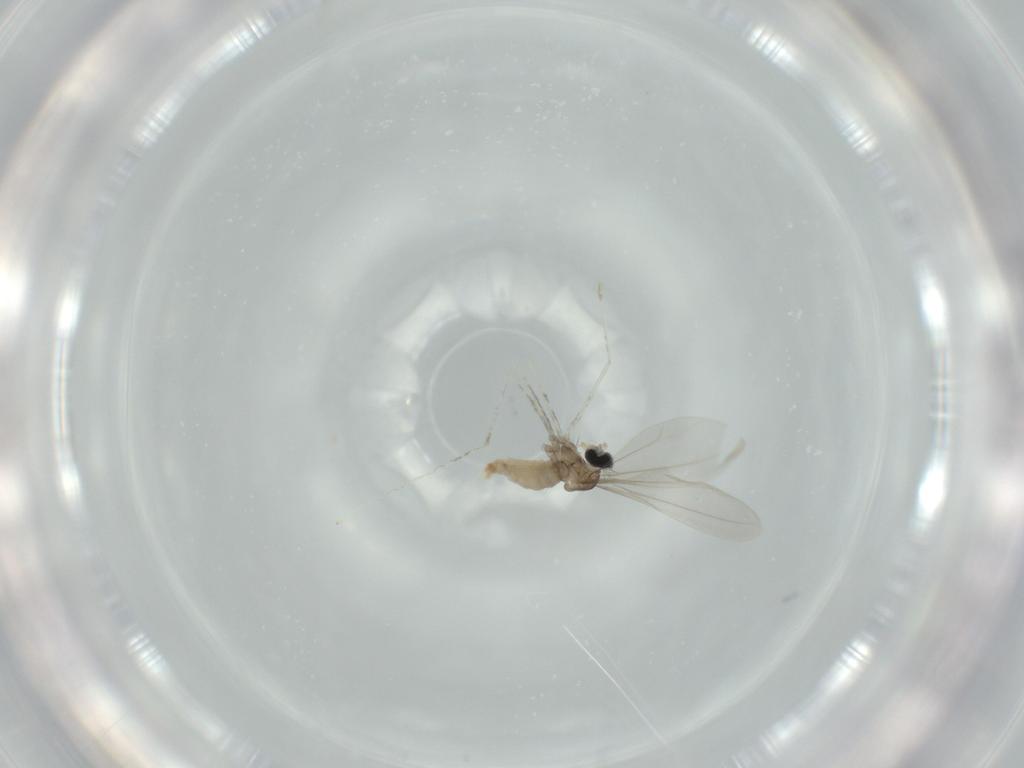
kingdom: Animalia
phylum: Arthropoda
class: Insecta
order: Diptera
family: Cecidomyiidae
